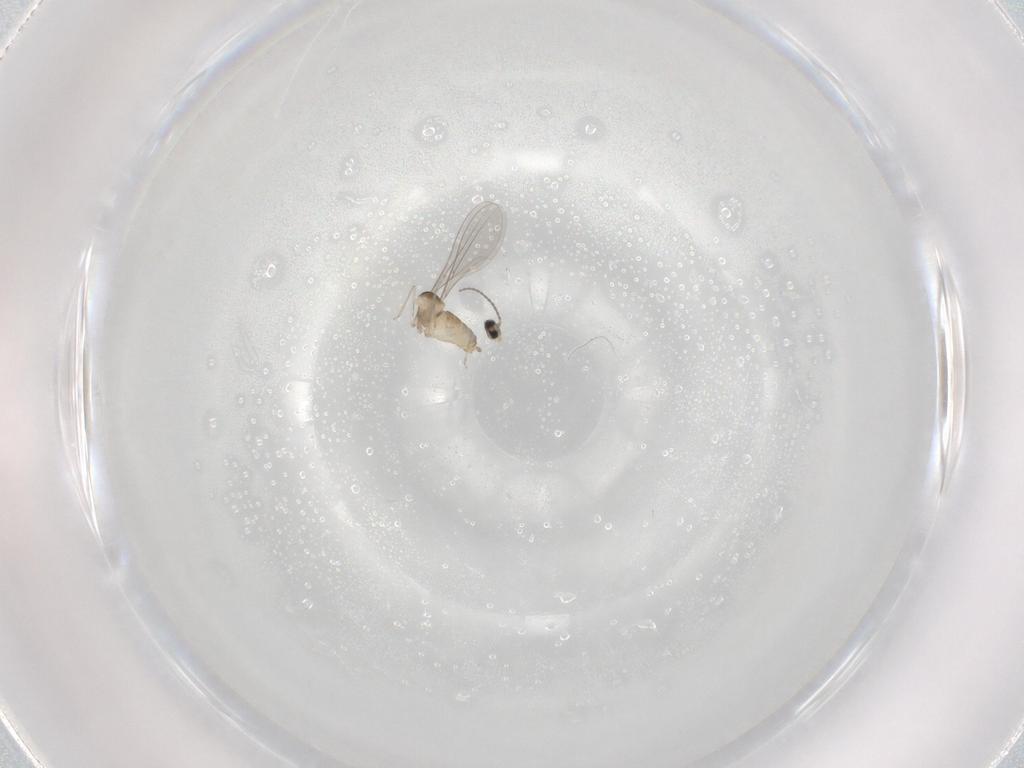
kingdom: Animalia
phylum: Arthropoda
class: Insecta
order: Diptera
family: Cecidomyiidae
